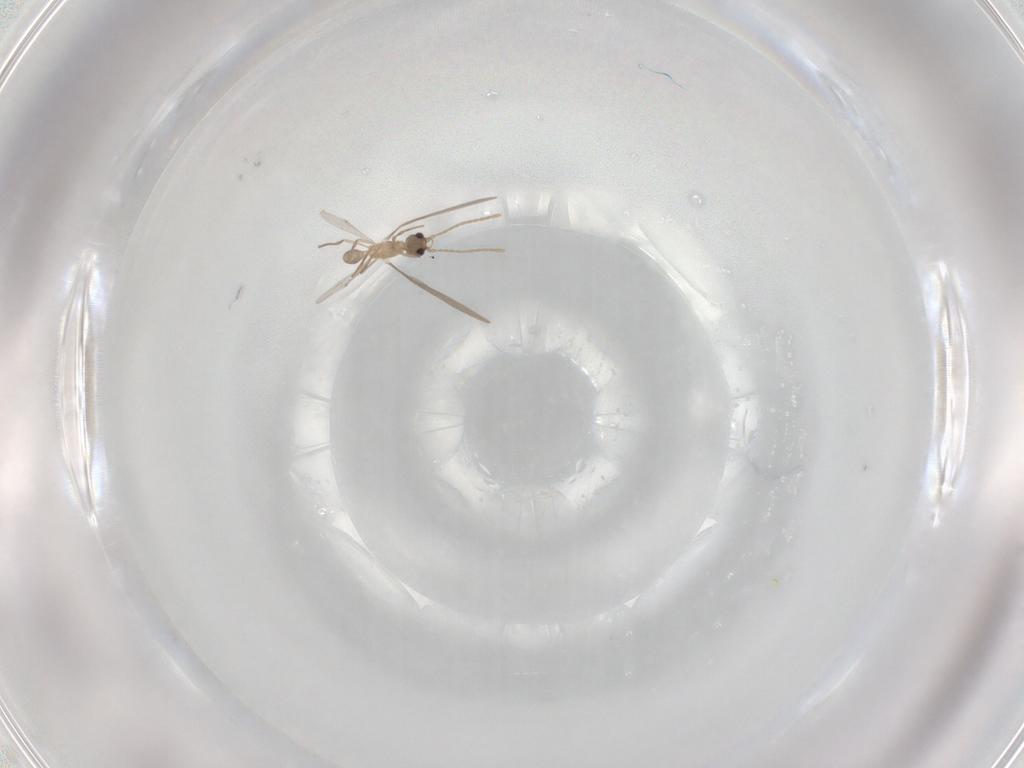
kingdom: Animalia
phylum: Arthropoda
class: Insecta
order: Hymenoptera
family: Formicidae
